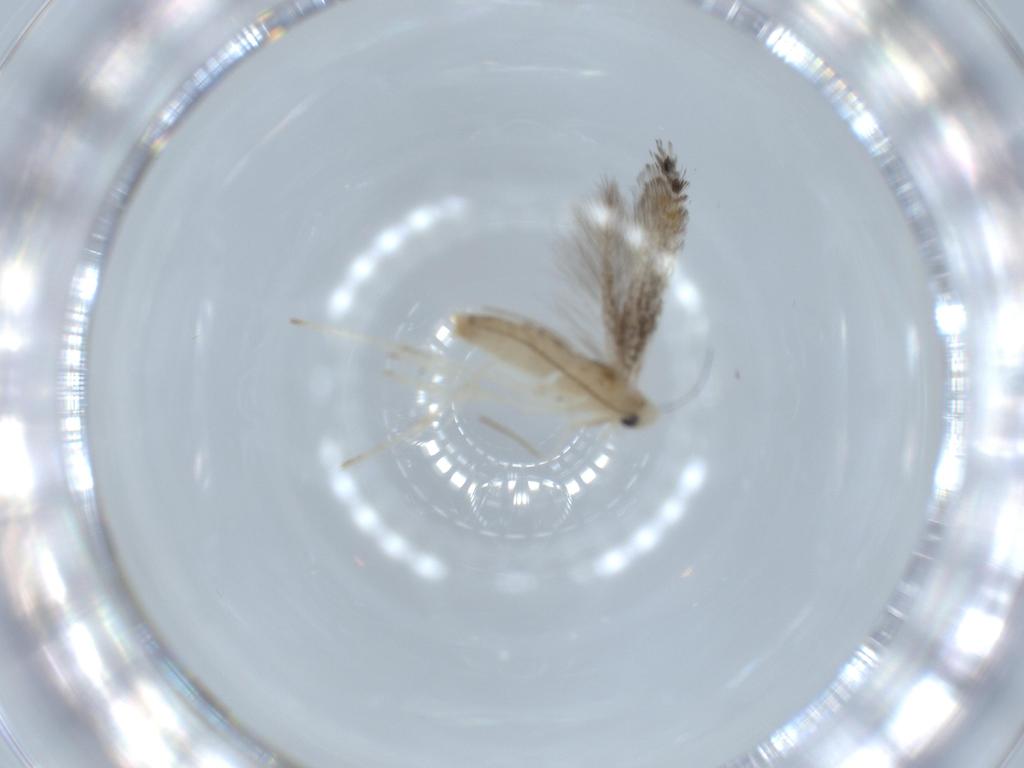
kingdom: Animalia
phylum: Arthropoda
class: Insecta
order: Lepidoptera
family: Gracillariidae
